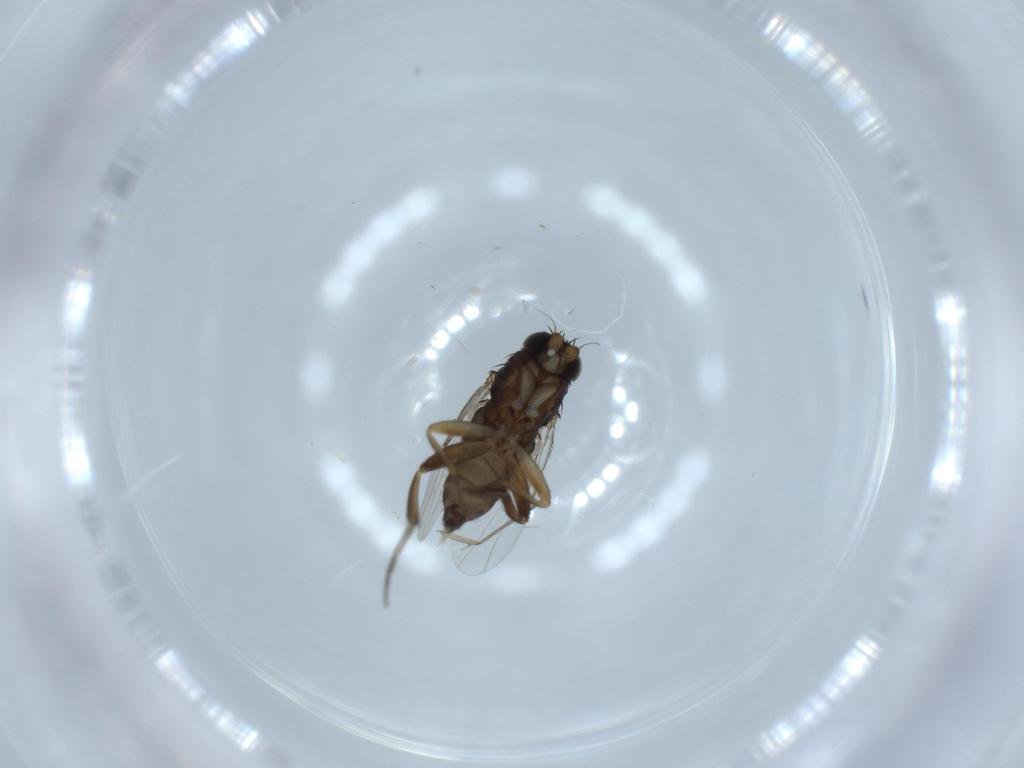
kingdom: Animalia
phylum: Arthropoda
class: Insecta
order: Diptera
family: Phoridae
